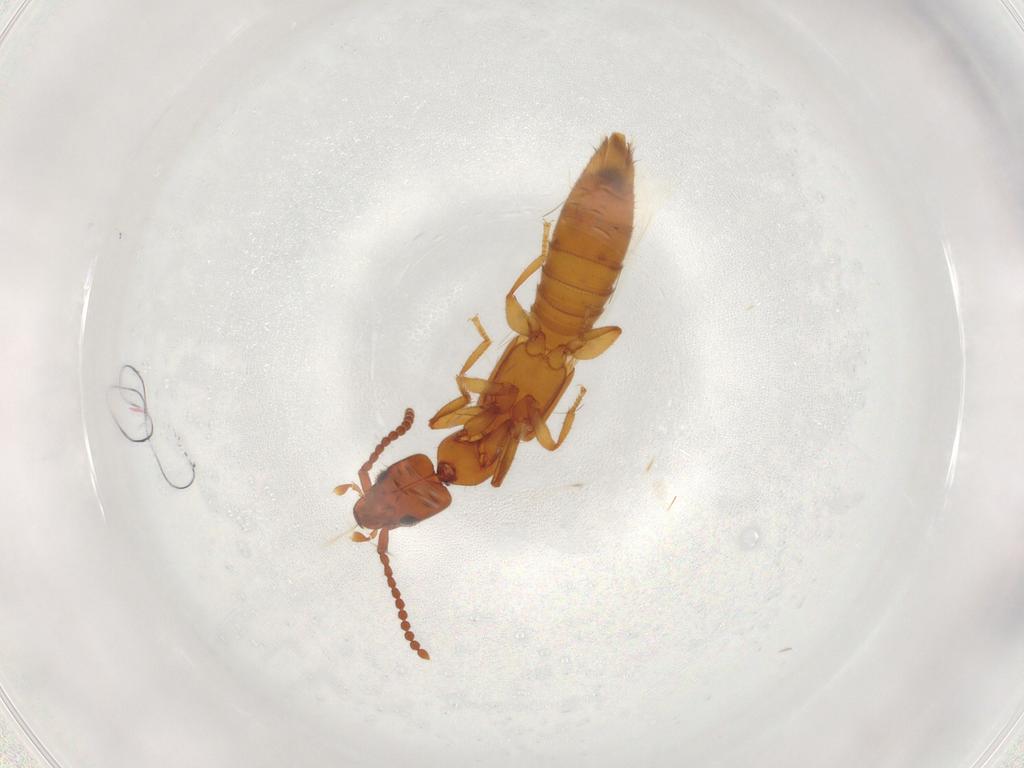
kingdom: Animalia
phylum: Arthropoda
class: Insecta
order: Coleoptera
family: Staphylinidae
